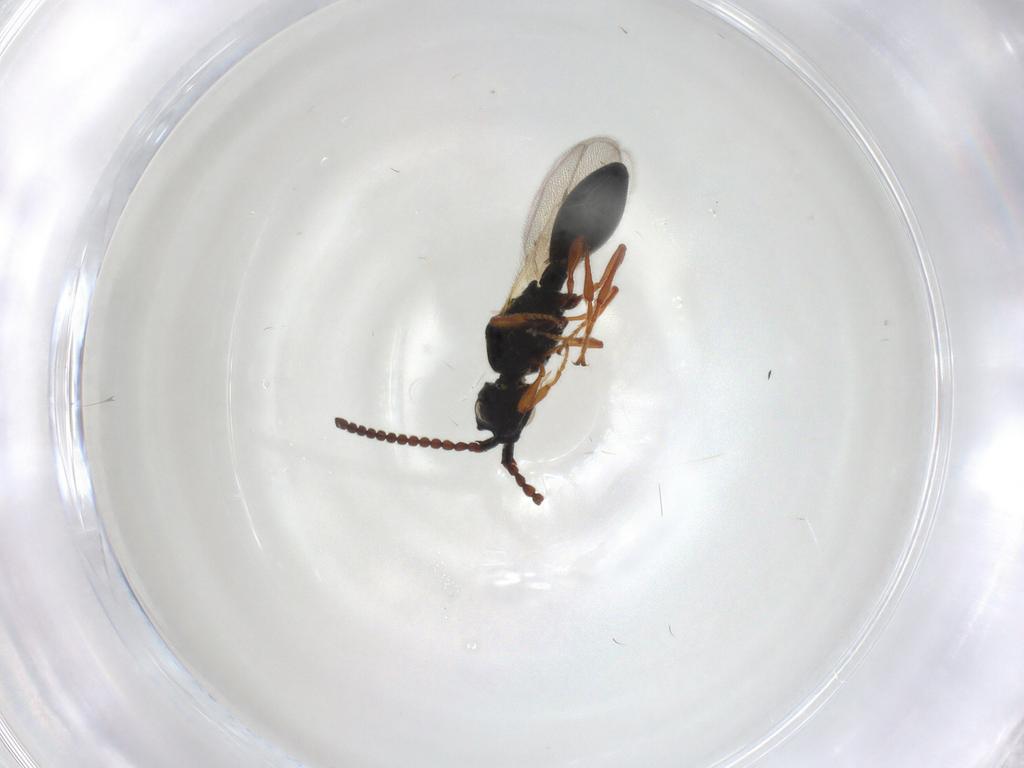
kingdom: Animalia
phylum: Arthropoda
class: Insecta
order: Hymenoptera
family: Diapriidae
